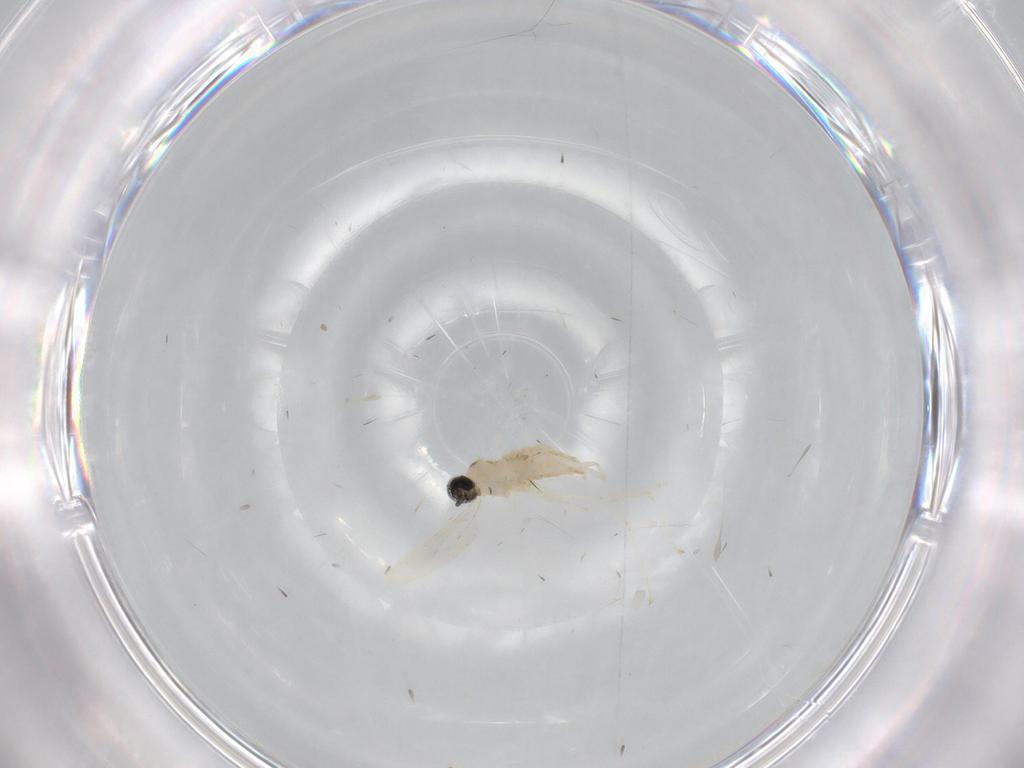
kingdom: Animalia
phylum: Arthropoda
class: Insecta
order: Diptera
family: Cecidomyiidae
